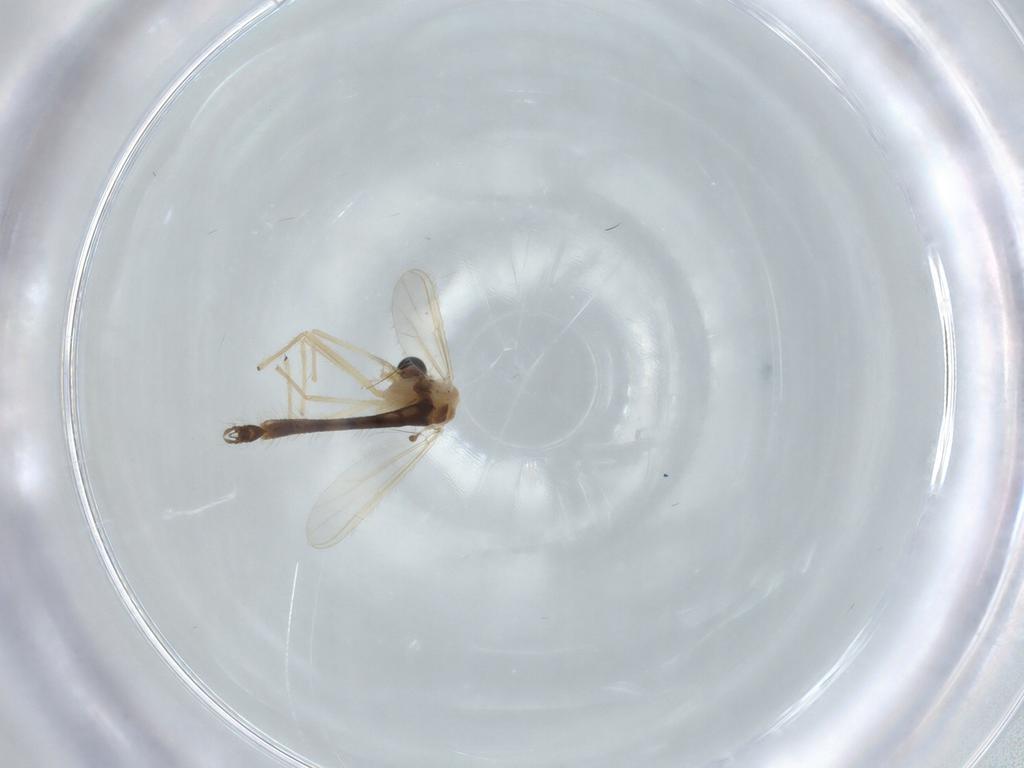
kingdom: Animalia
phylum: Arthropoda
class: Insecta
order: Diptera
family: Chironomidae
